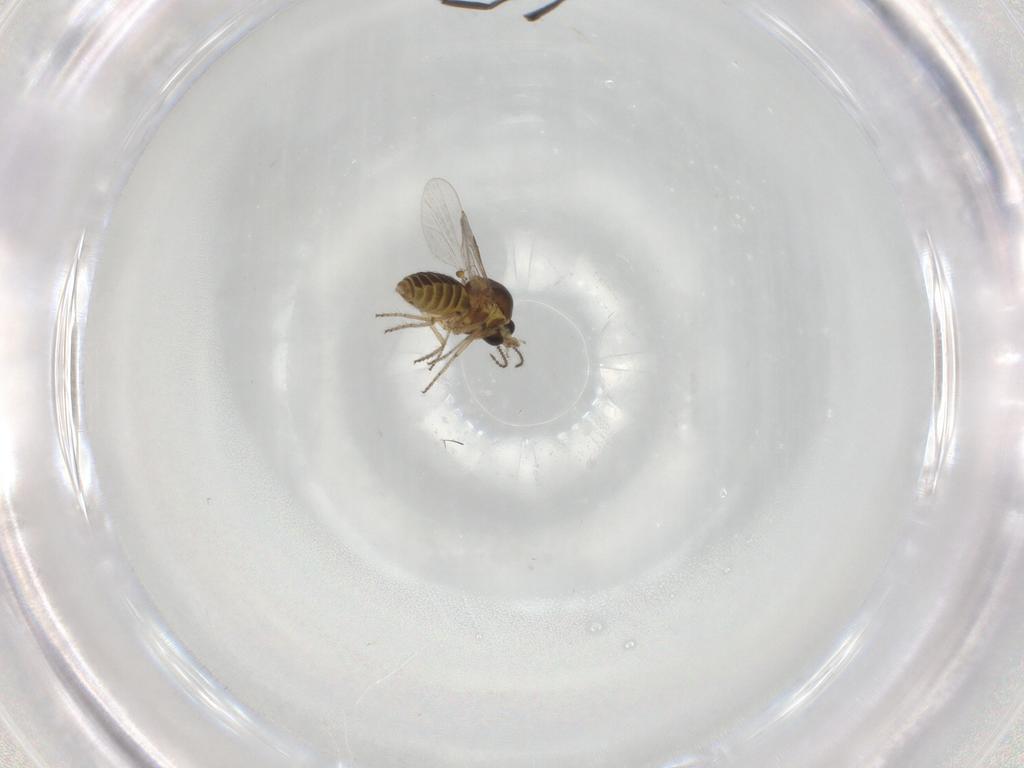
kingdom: Animalia
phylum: Arthropoda
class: Insecta
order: Diptera
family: Ceratopogonidae
